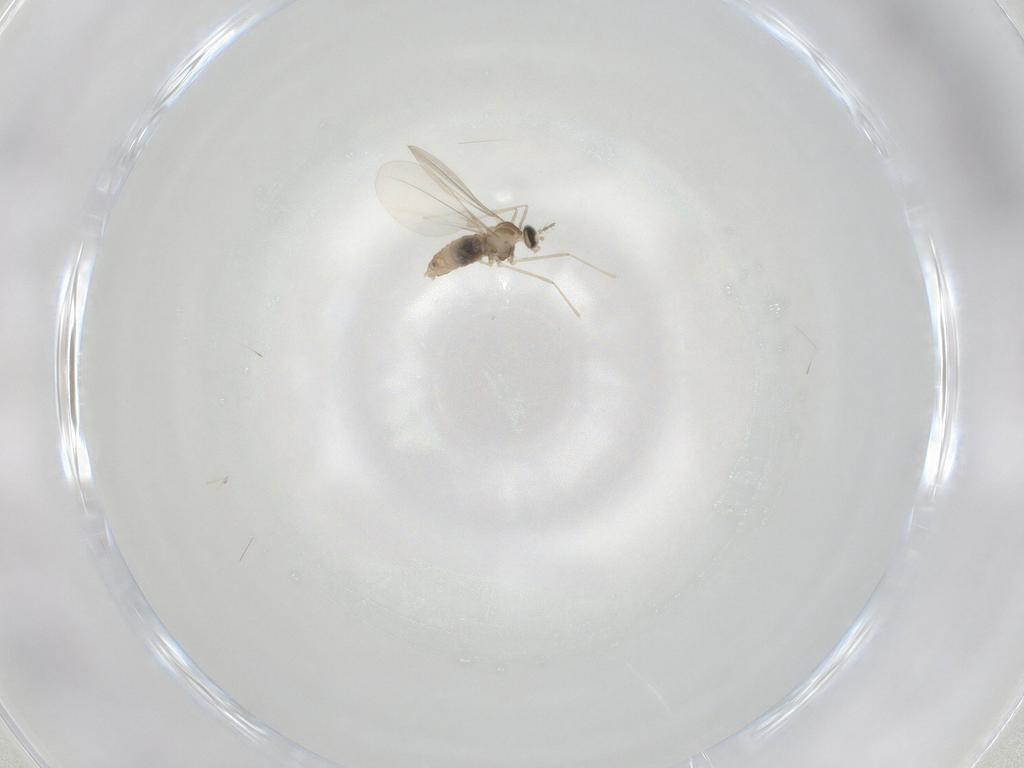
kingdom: Animalia
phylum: Arthropoda
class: Insecta
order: Diptera
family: Cecidomyiidae
